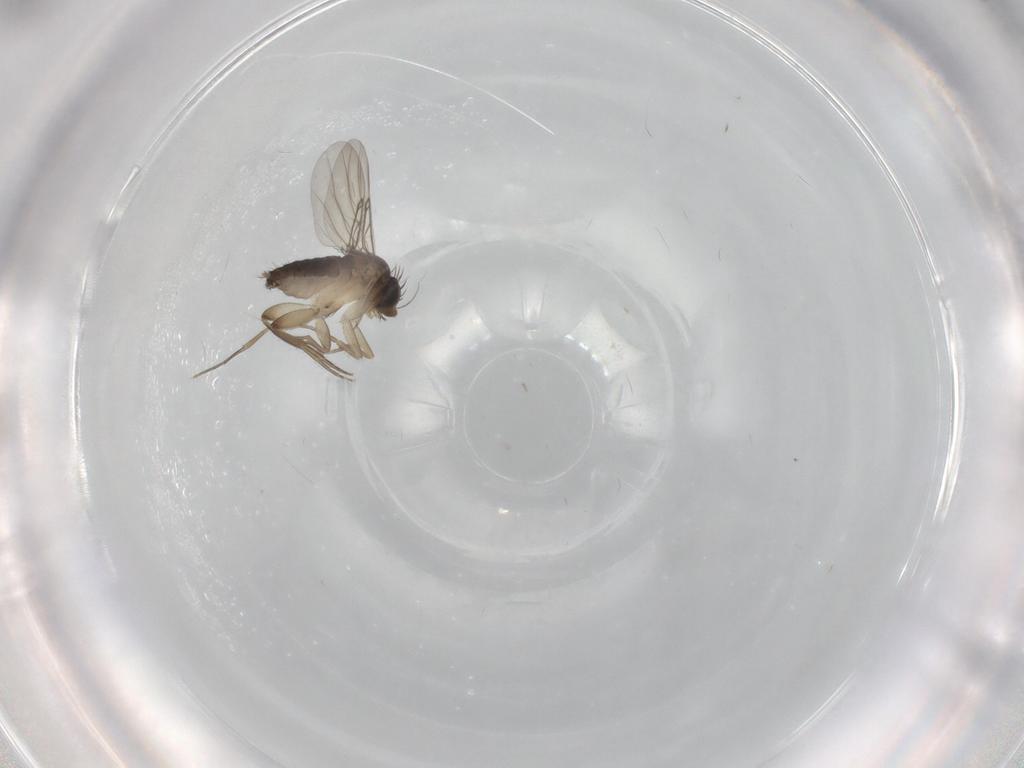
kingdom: Animalia
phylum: Arthropoda
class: Insecta
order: Diptera
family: Phoridae
